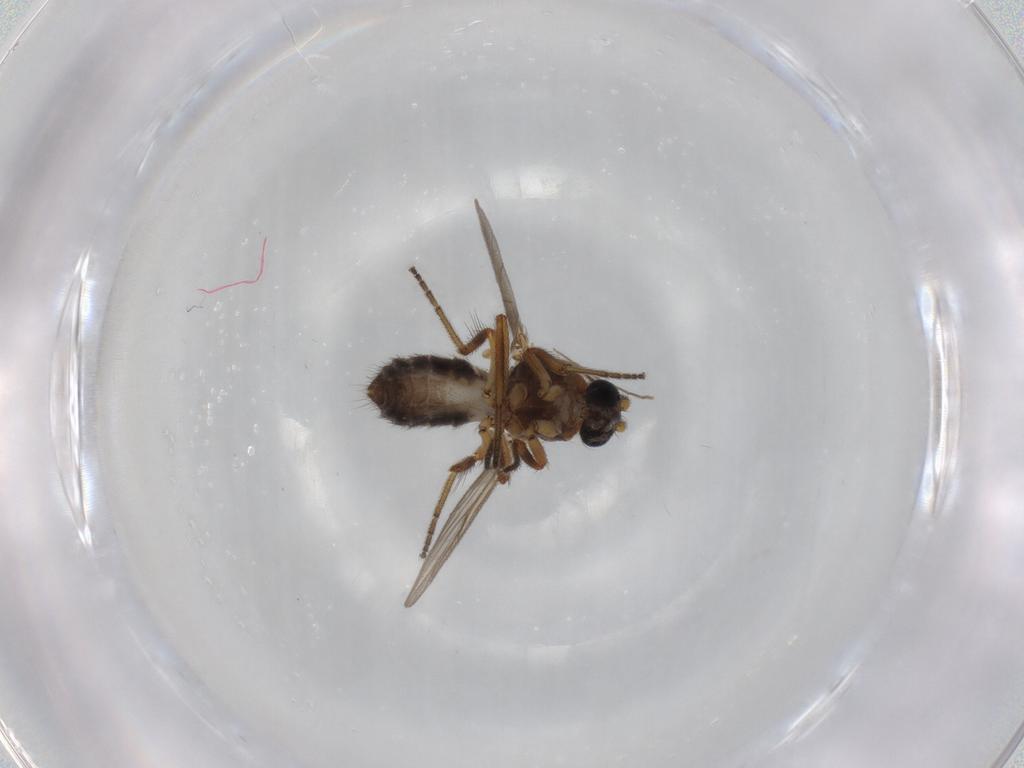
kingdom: Animalia
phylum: Arthropoda
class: Insecta
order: Diptera
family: Ceratopogonidae
